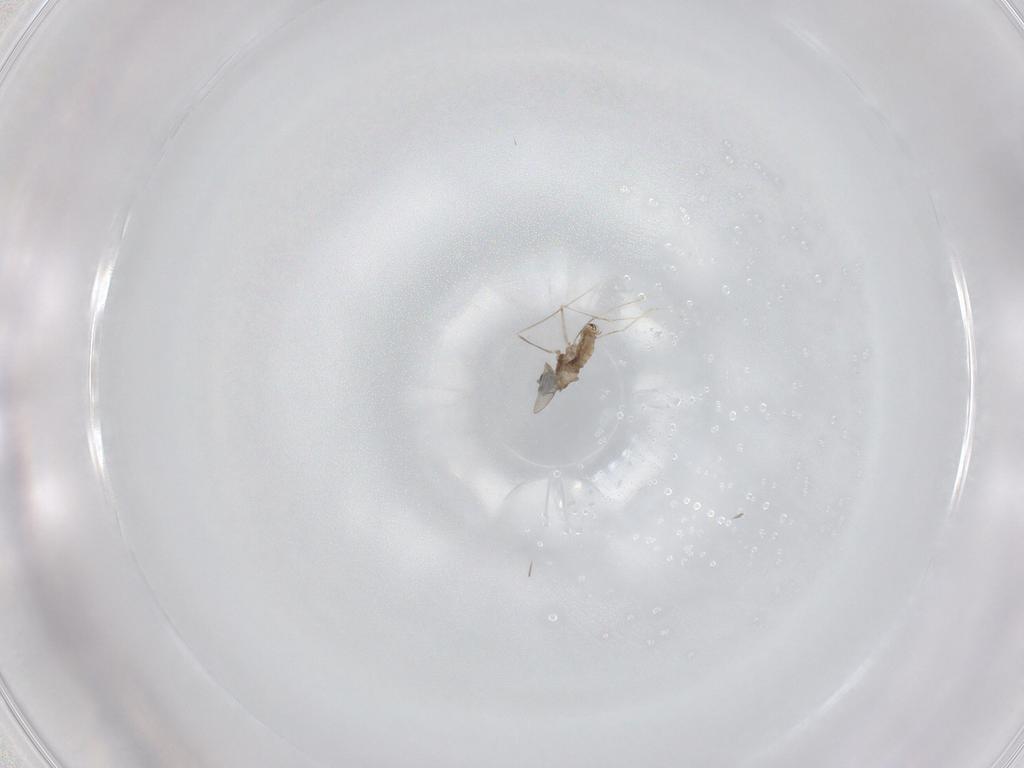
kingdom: Animalia
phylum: Arthropoda
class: Insecta
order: Diptera
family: Cecidomyiidae
